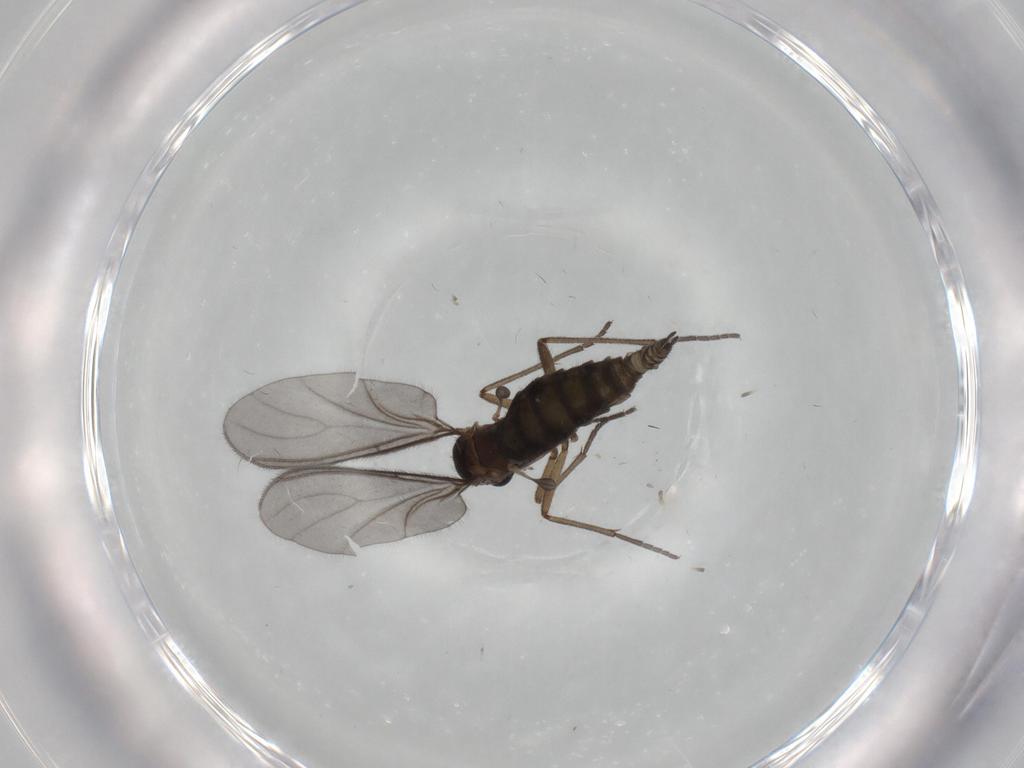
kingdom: Animalia
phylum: Arthropoda
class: Insecta
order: Diptera
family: Sciaridae
